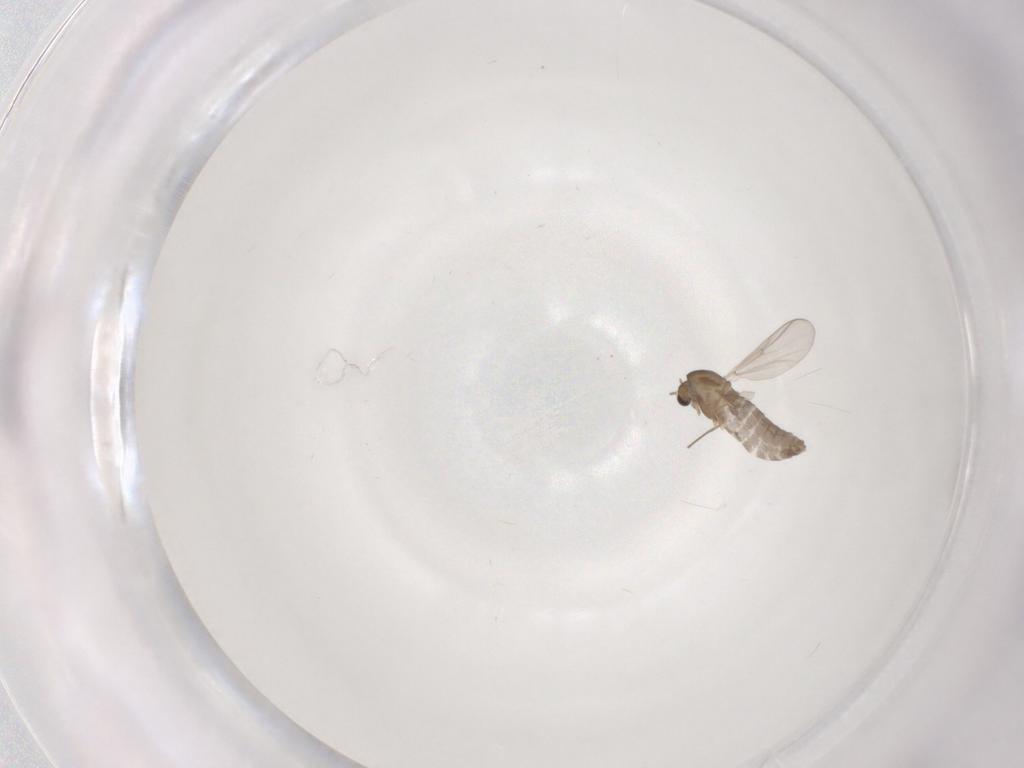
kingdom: Animalia
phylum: Arthropoda
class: Insecta
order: Diptera
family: Chironomidae
